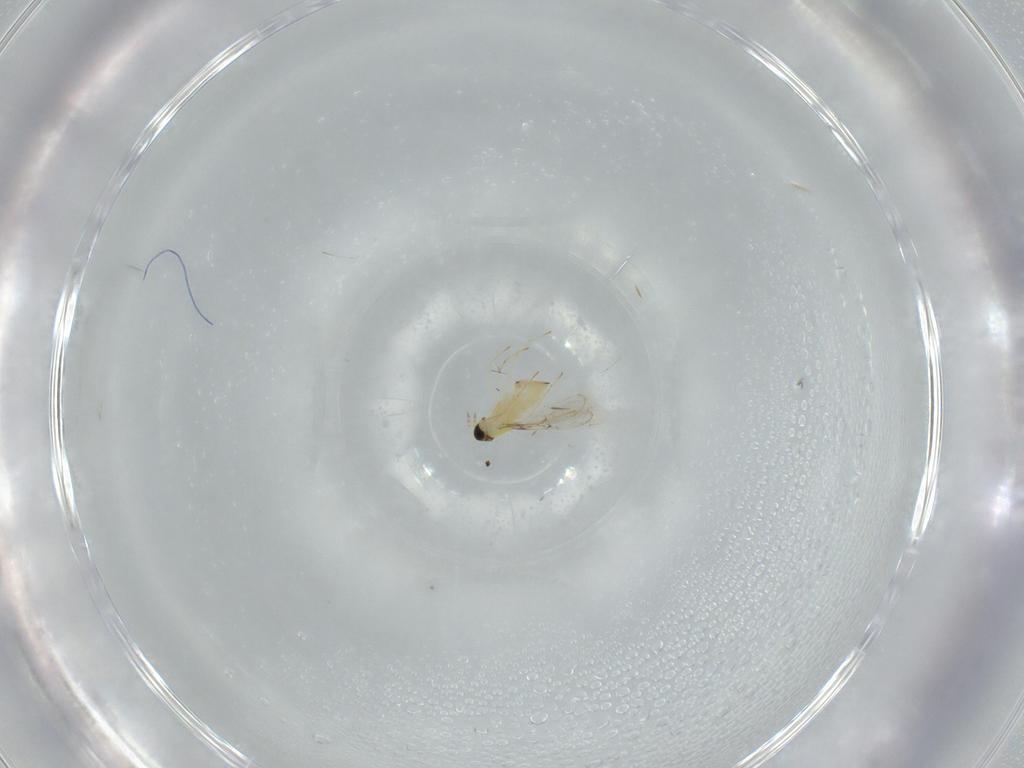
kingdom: Animalia
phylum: Arthropoda
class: Insecta
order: Hymenoptera
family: Trichogrammatidae
